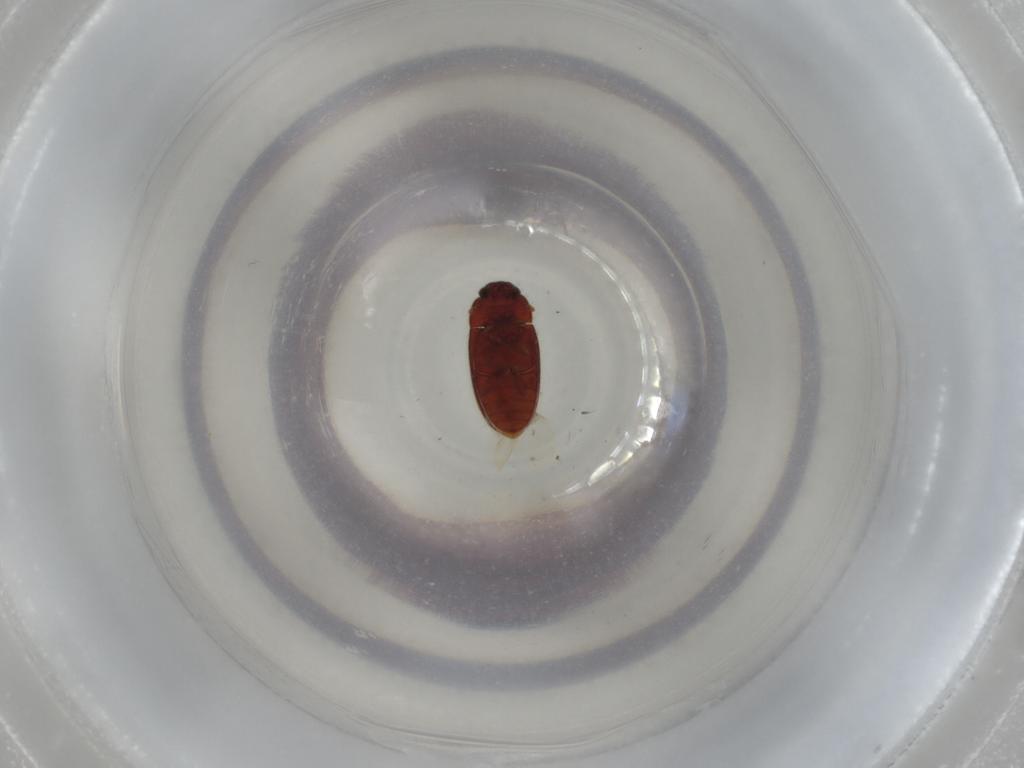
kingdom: Animalia
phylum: Arthropoda
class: Insecta
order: Coleoptera
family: Biphyllidae
